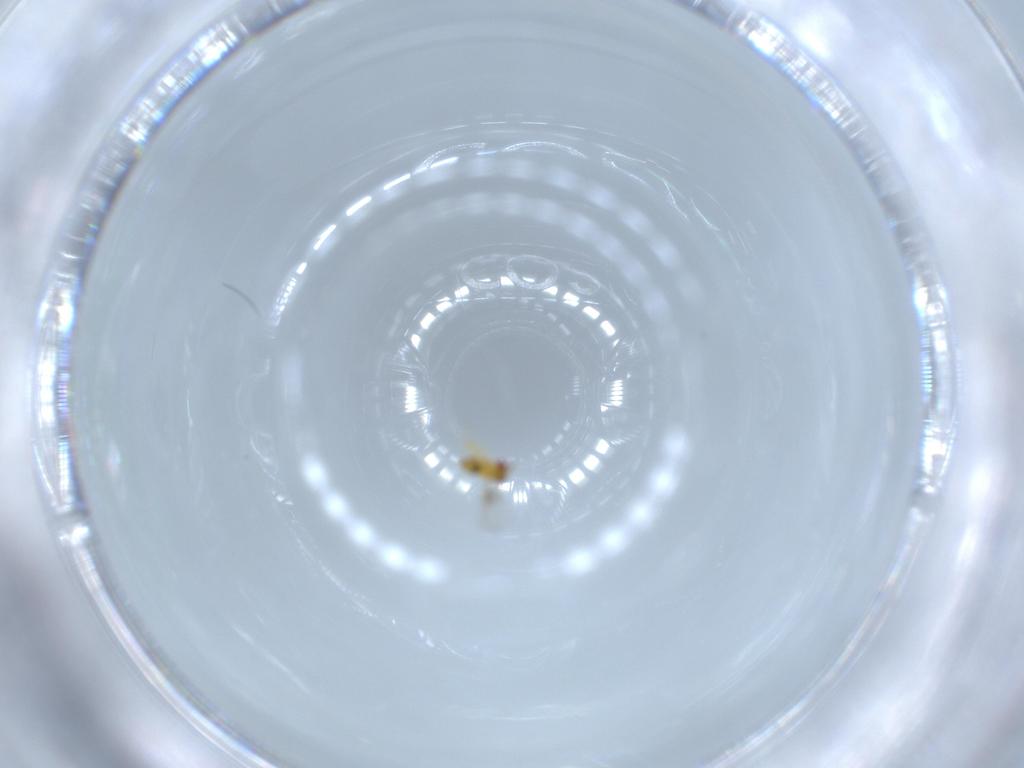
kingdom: Animalia
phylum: Arthropoda
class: Insecta
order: Hymenoptera
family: Trichogrammatidae
